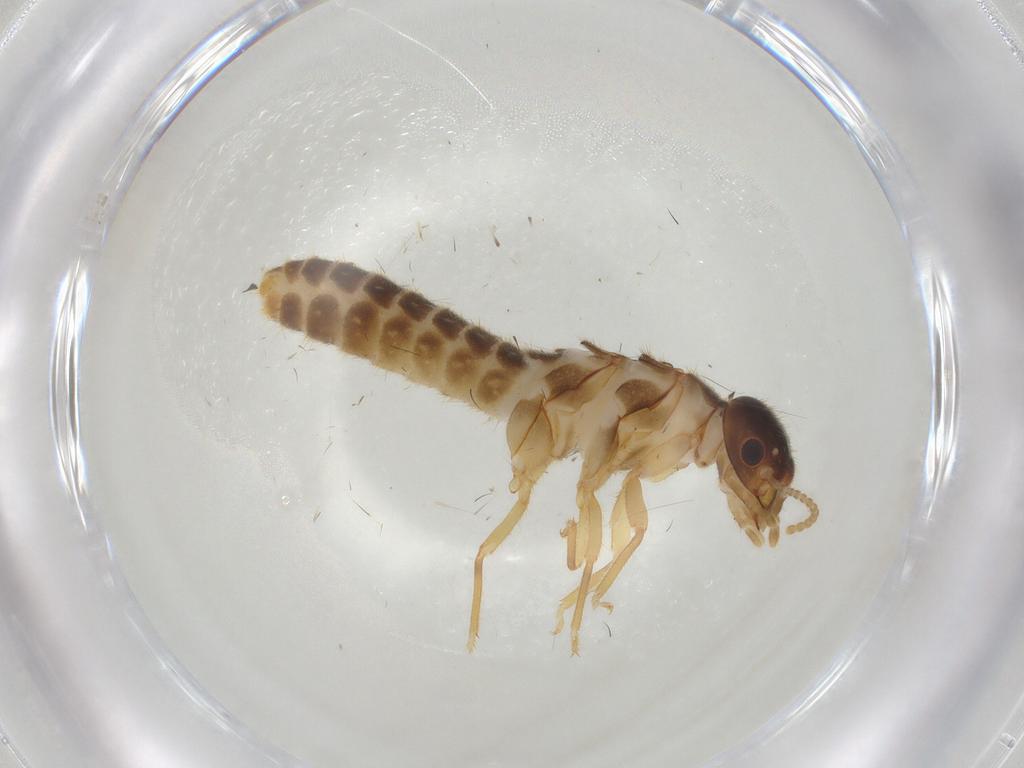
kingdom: Animalia
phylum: Arthropoda
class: Insecta
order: Blattodea
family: Termitidae
